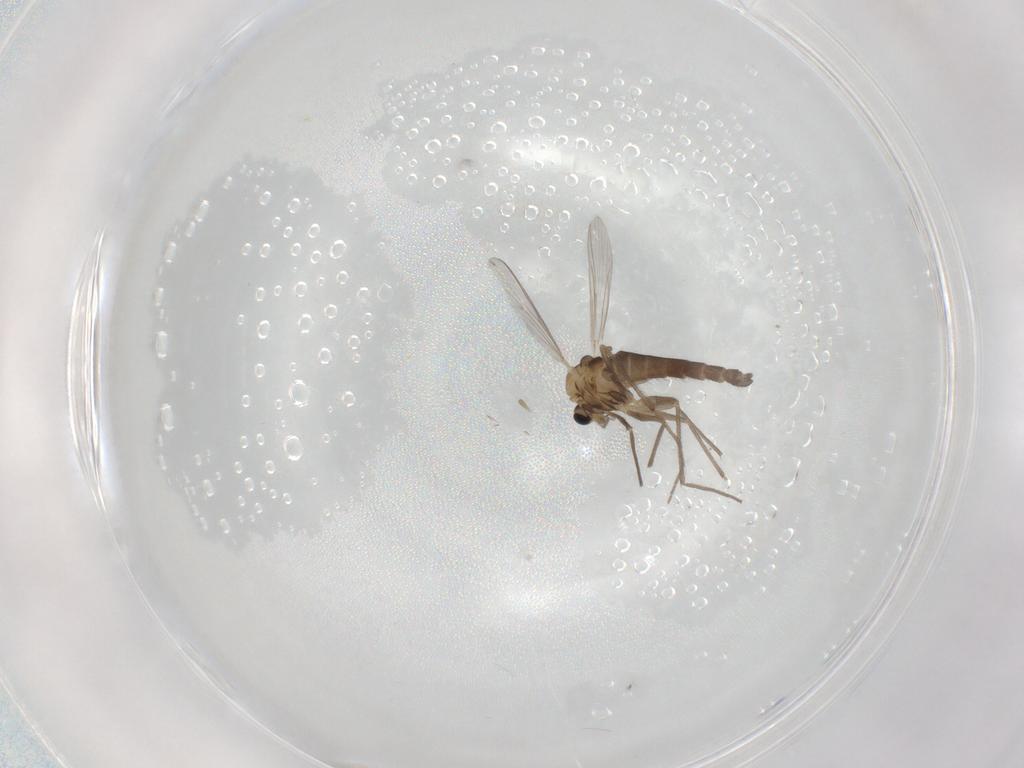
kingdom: Animalia
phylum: Arthropoda
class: Insecta
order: Diptera
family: Chironomidae
